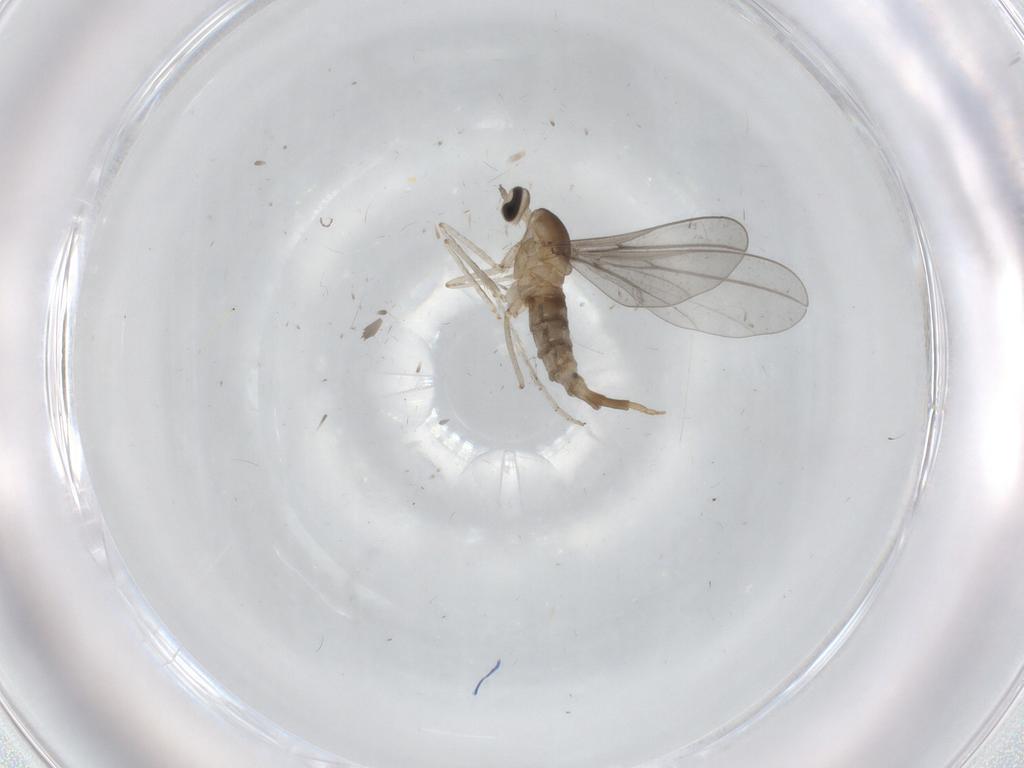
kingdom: Animalia
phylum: Arthropoda
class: Insecta
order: Diptera
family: Cecidomyiidae
